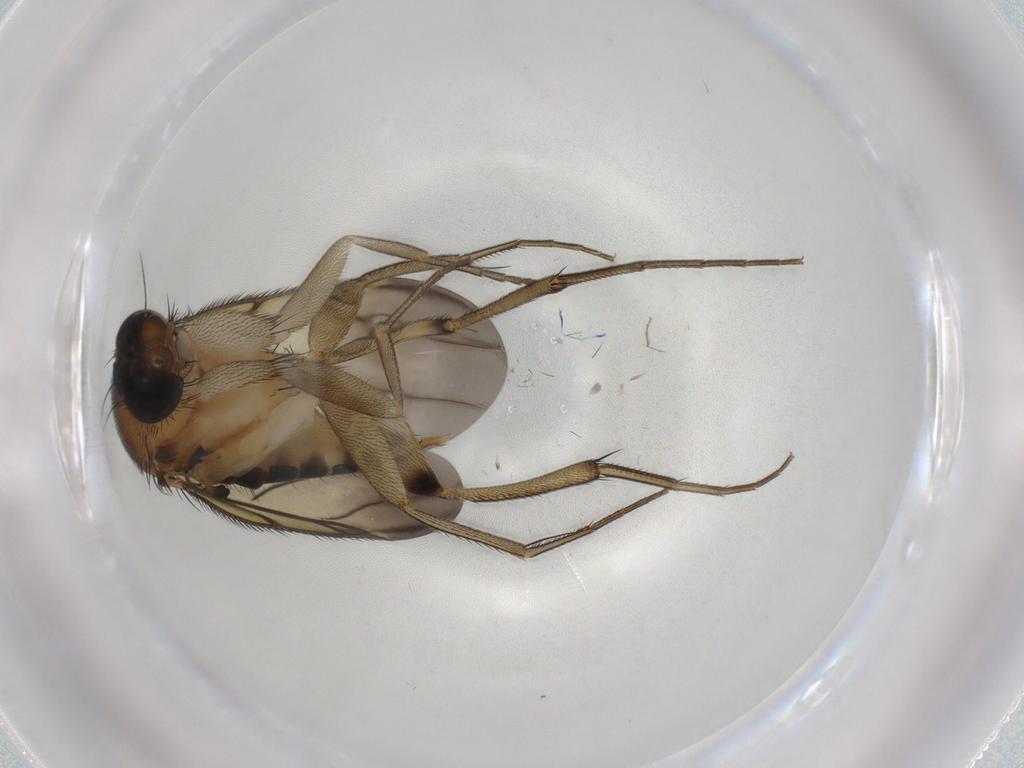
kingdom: Animalia
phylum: Arthropoda
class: Insecta
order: Diptera
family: Phoridae
